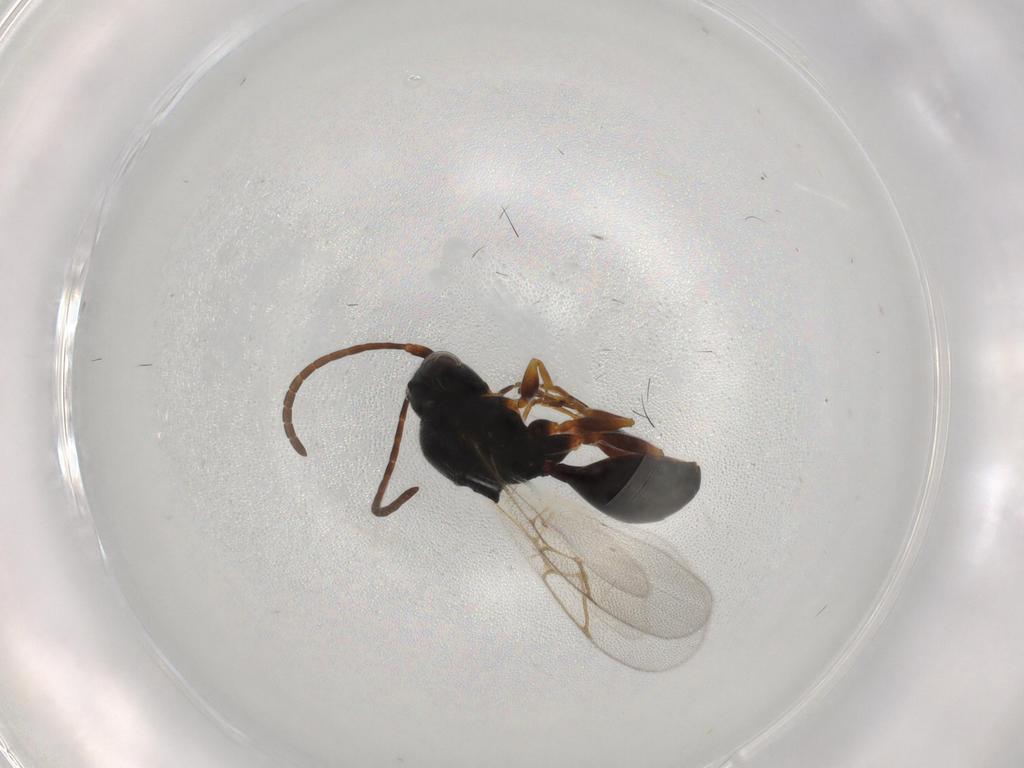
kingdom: Animalia
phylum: Arthropoda
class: Insecta
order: Hymenoptera
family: Figitidae
